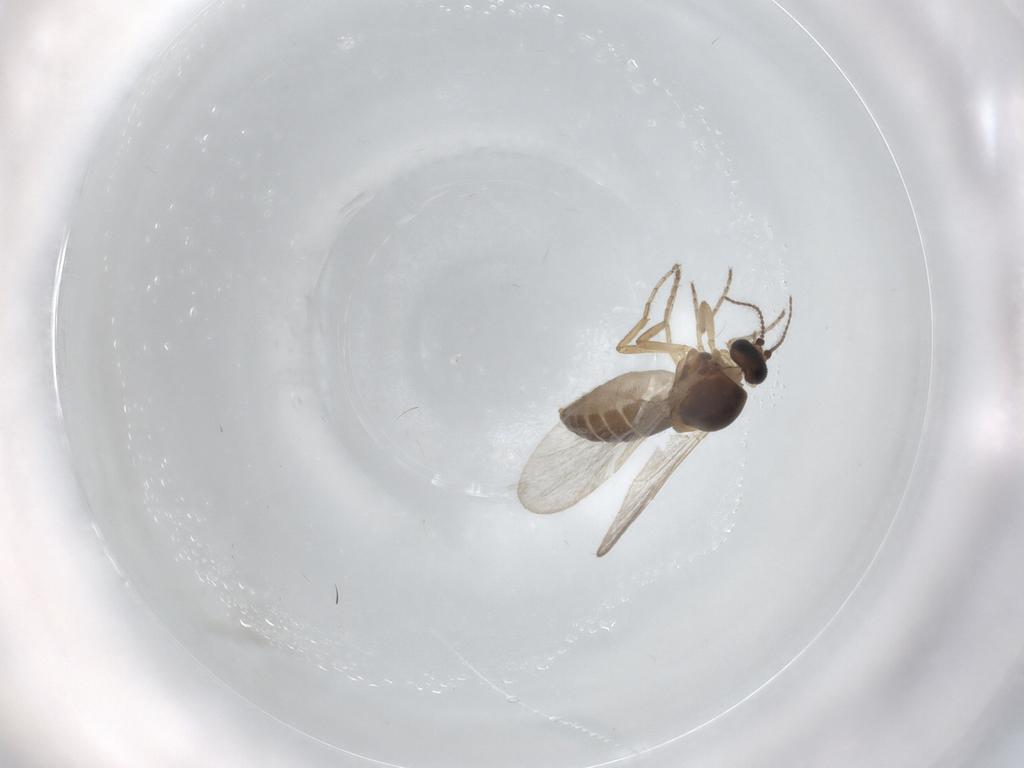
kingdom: Animalia
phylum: Arthropoda
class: Insecta
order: Diptera
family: Ceratopogonidae
